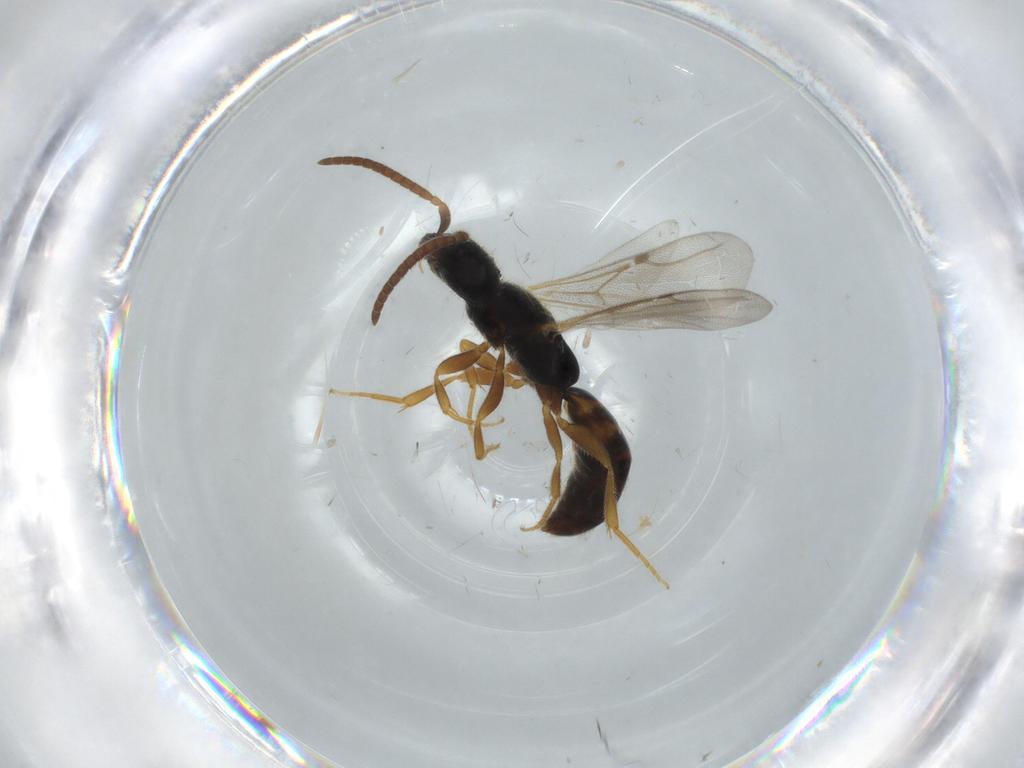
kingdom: Animalia
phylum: Arthropoda
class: Insecta
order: Hymenoptera
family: Bethylidae
